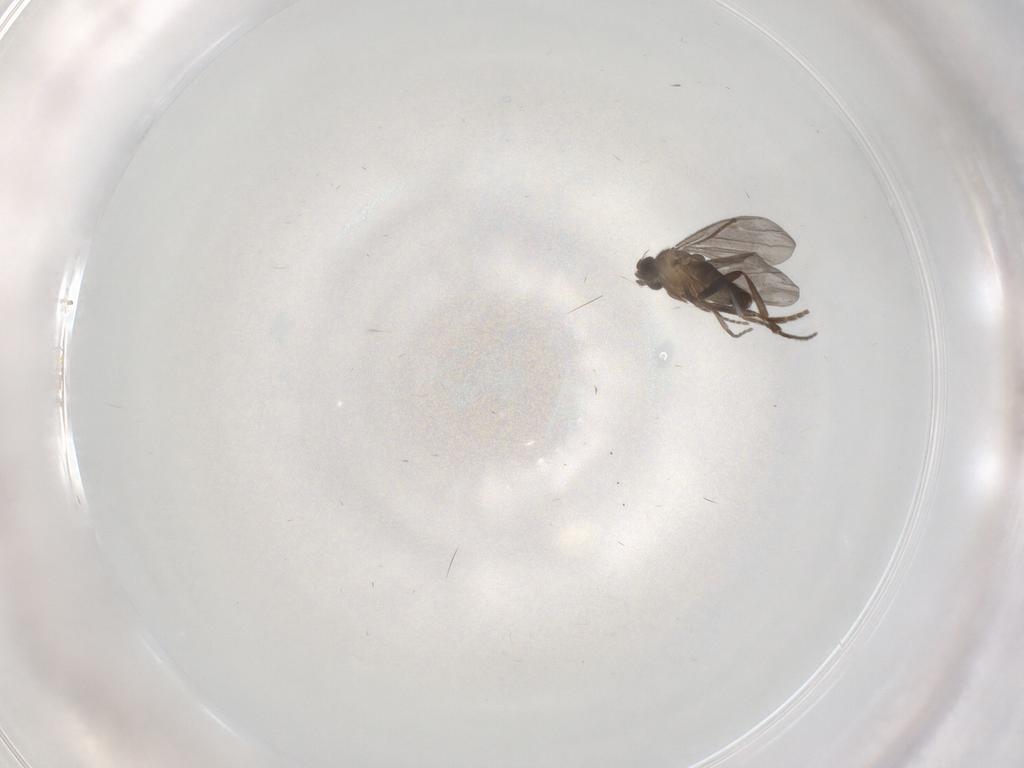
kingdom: Animalia
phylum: Arthropoda
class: Insecta
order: Diptera
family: Phoridae
